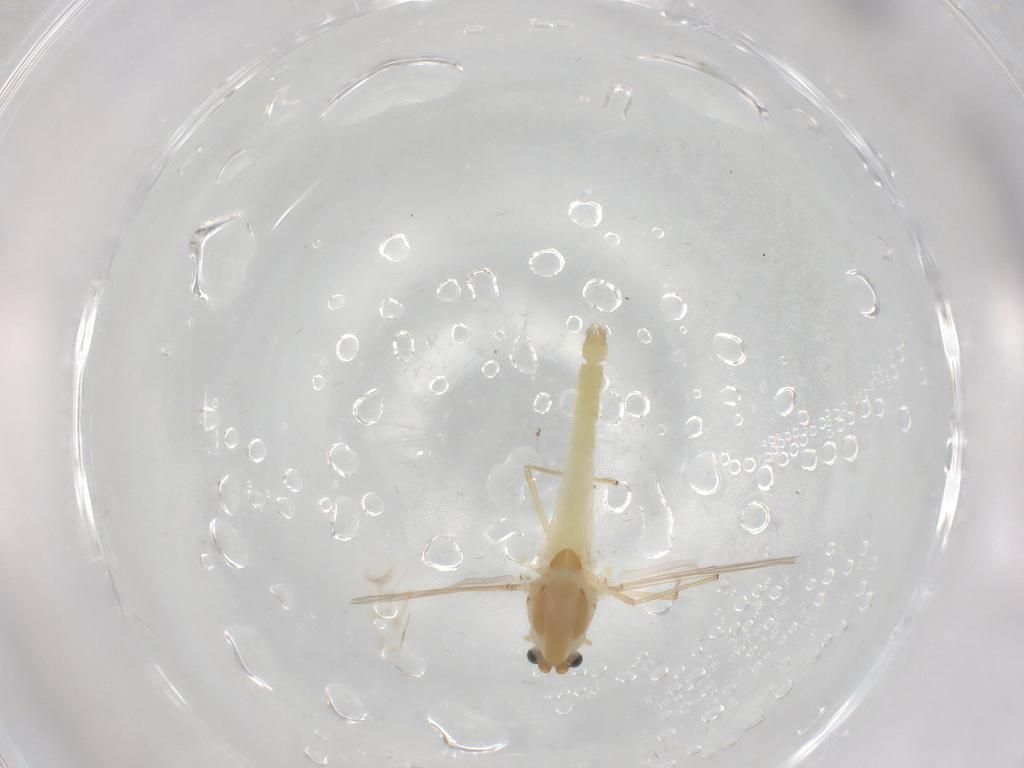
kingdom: Animalia
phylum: Arthropoda
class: Insecta
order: Diptera
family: Chironomidae
